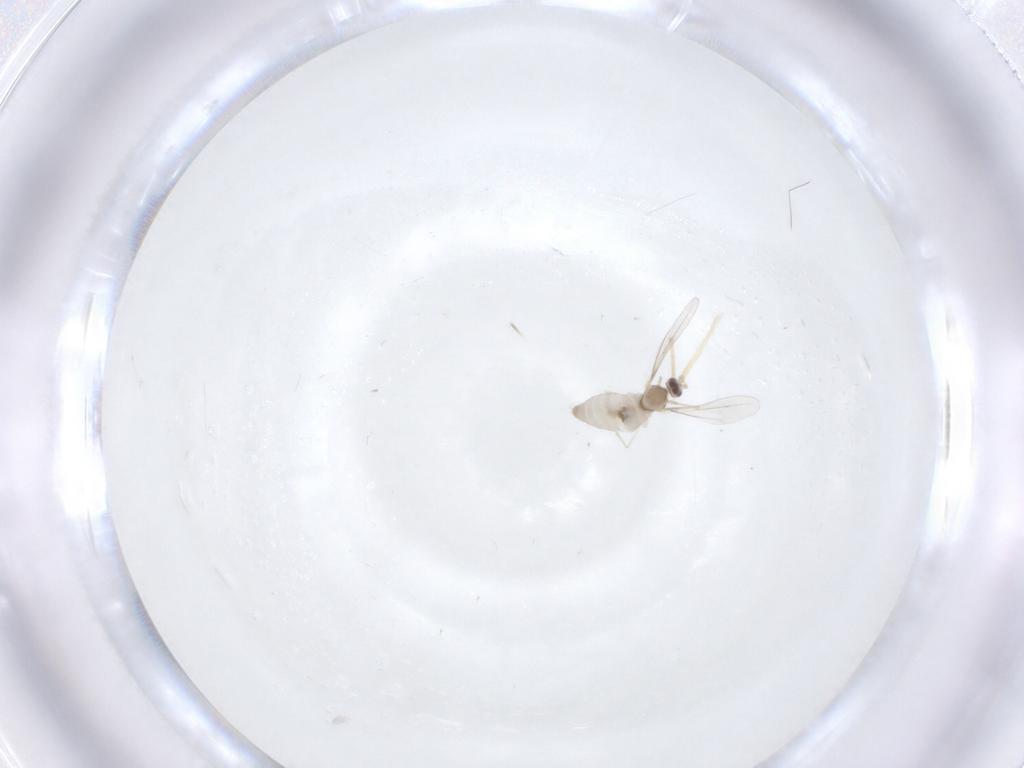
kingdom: Animalia
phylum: Arthropoda
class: Insecta
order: Diptera
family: Cecidomyiidae
